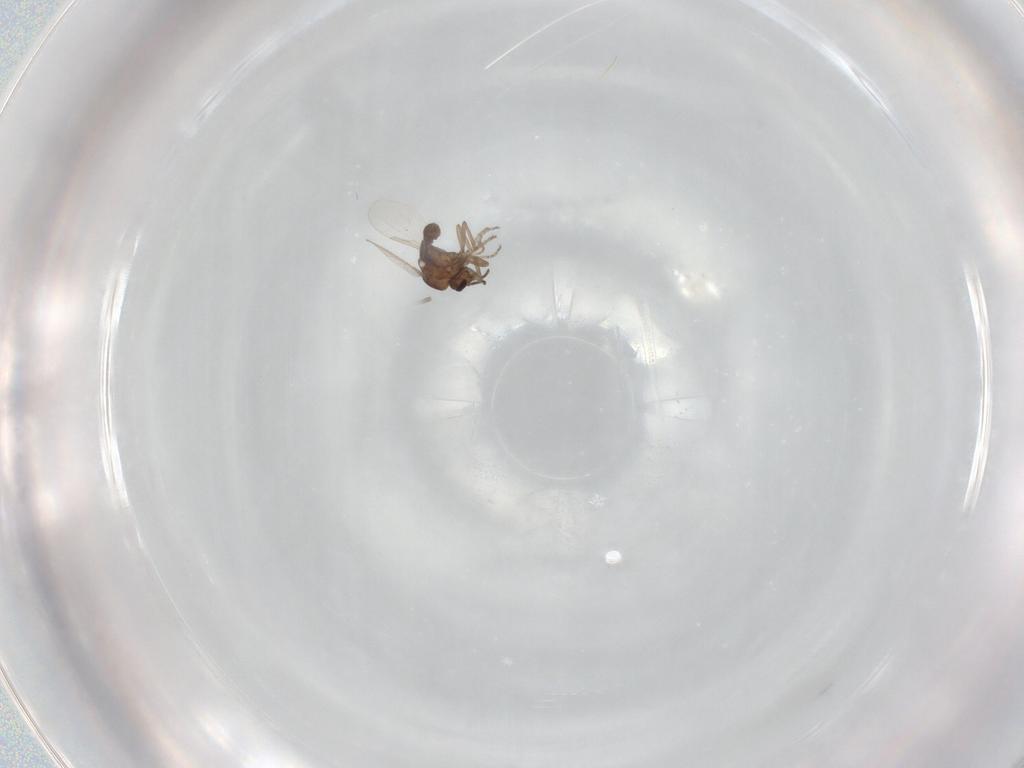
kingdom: Animalia
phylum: Arthropoda
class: Insecta
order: Diptera
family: Ceratopogonidae
